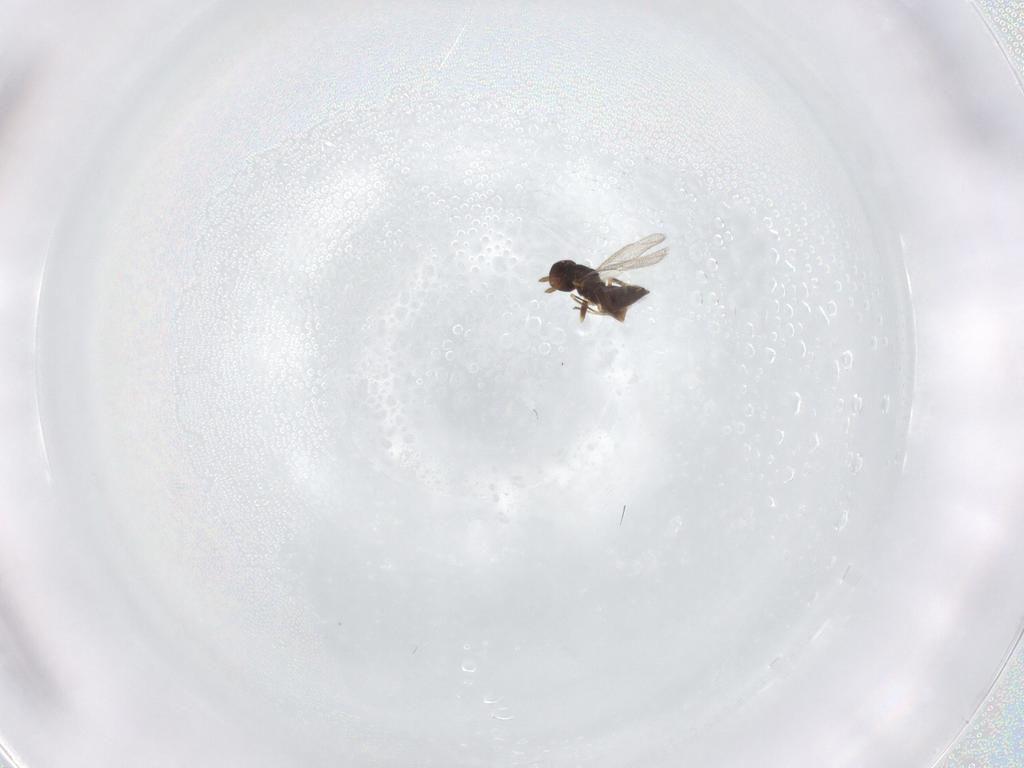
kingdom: Animalia
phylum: Arthropoda
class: Insecta
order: Hymenoptera
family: Eulophidae
